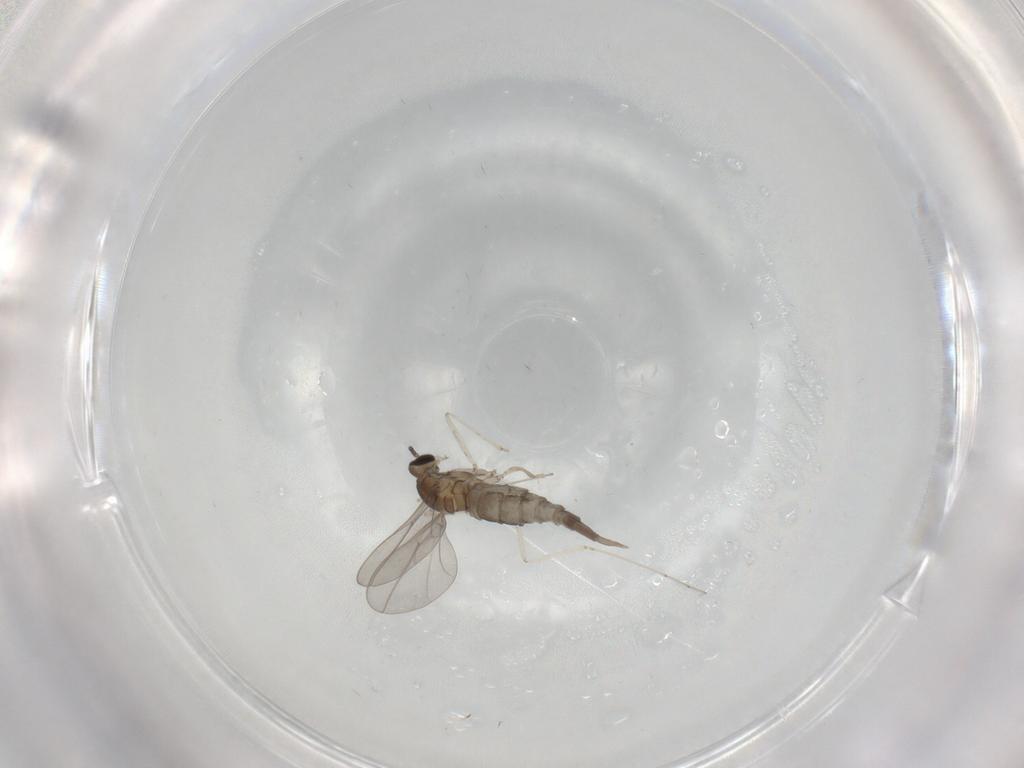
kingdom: Animalia
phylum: Arthropoda
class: Insecta
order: Diptera
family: Cecidomyiidae
